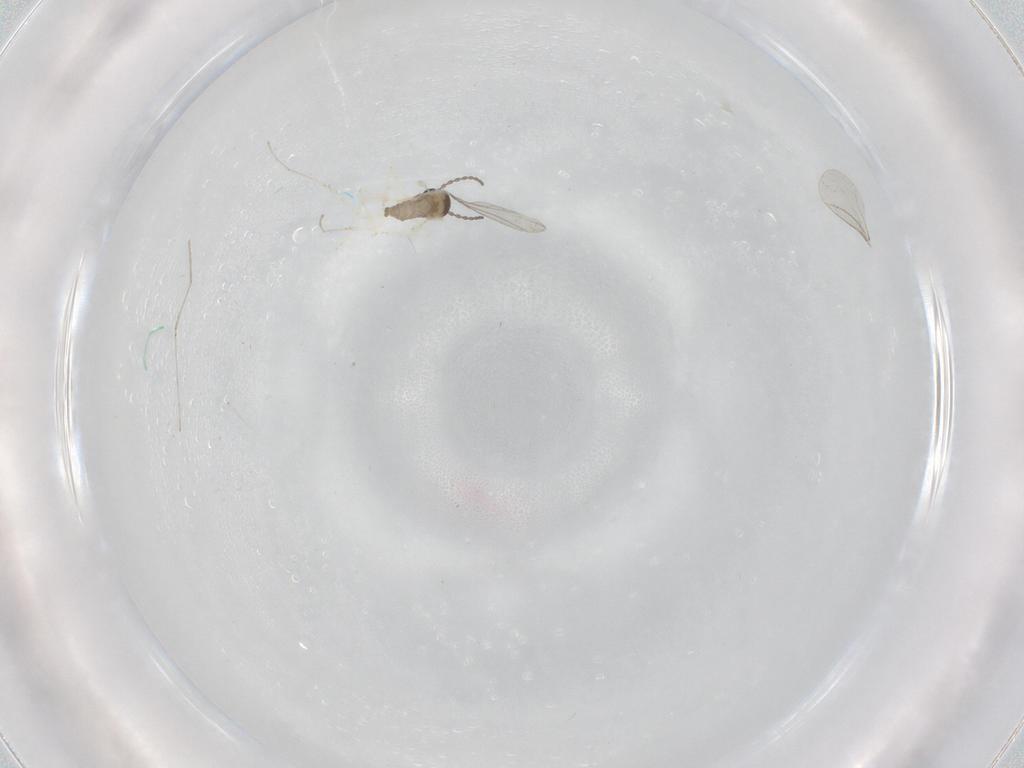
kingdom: Animalia
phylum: Arthropoda
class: Insecta
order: Diptera
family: Cecidomyiidae
